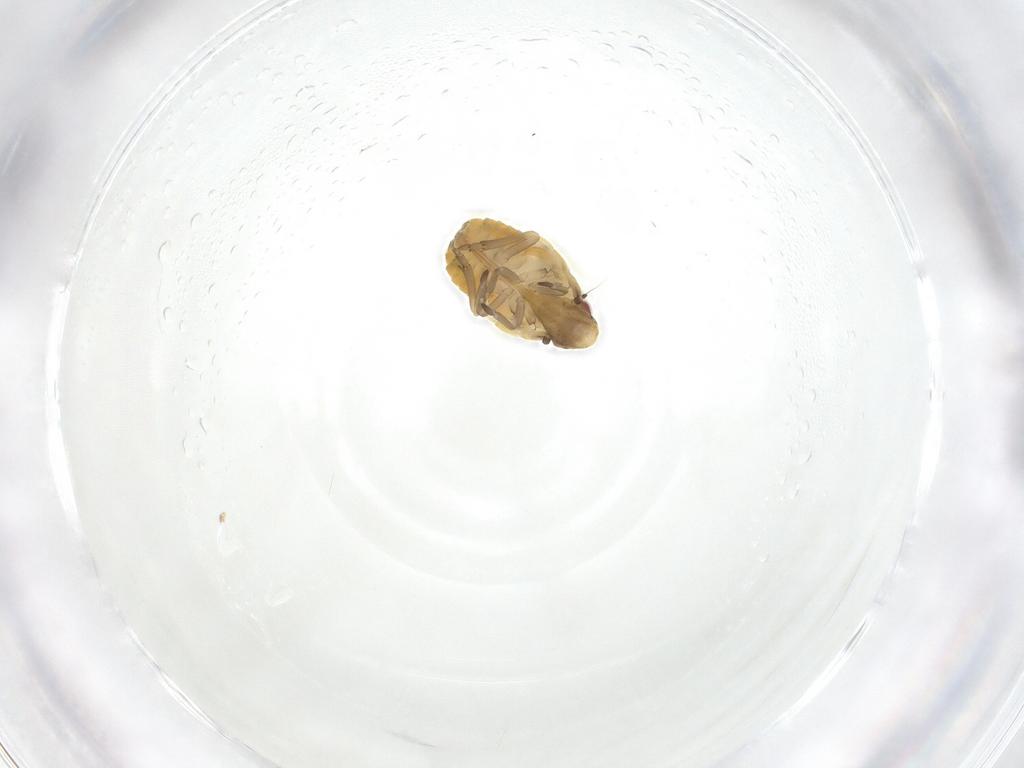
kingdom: Animalia
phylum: Arthropoda
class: Insecta
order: Hemiptera
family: Flatidae
